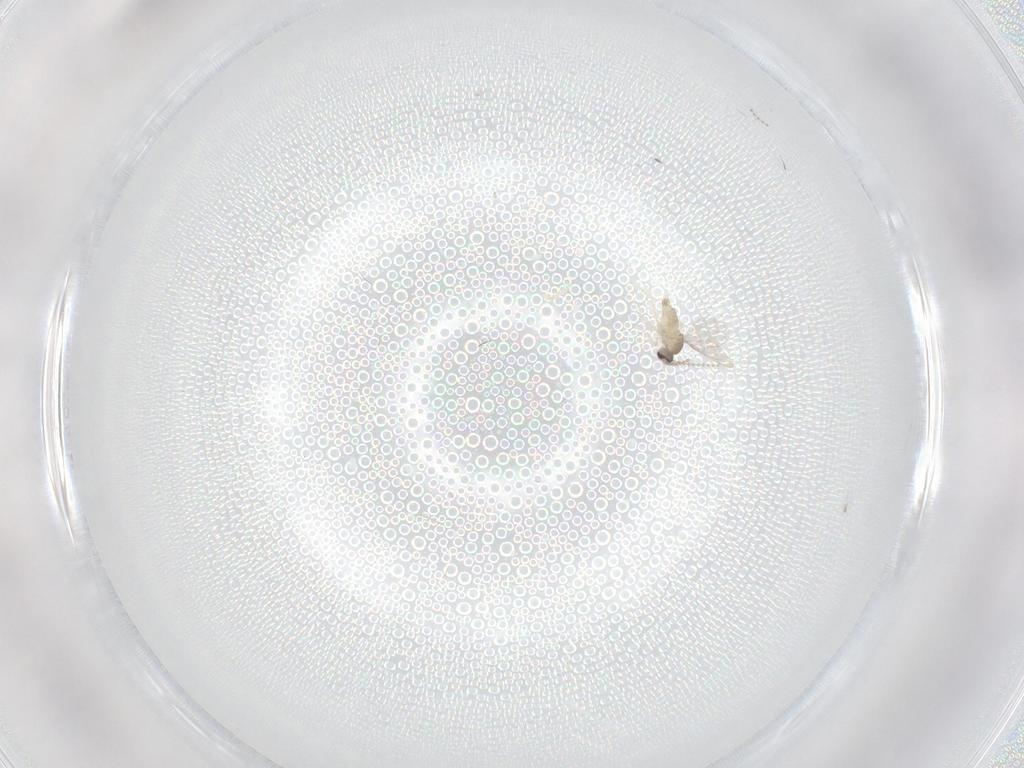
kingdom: Animalia
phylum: Arthropoda
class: Insecta
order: Diptera
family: Cecidomyiidae
